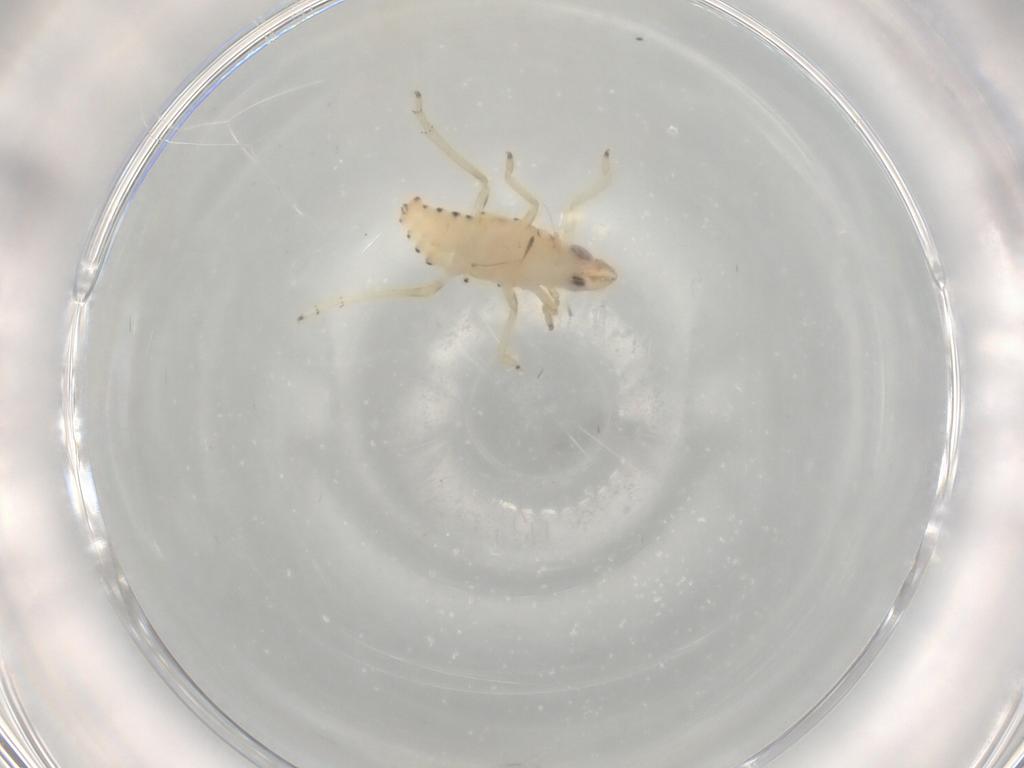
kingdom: Animalia
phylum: Arthropoda
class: Insecta
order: Hemiptera
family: Tropiduchidae
